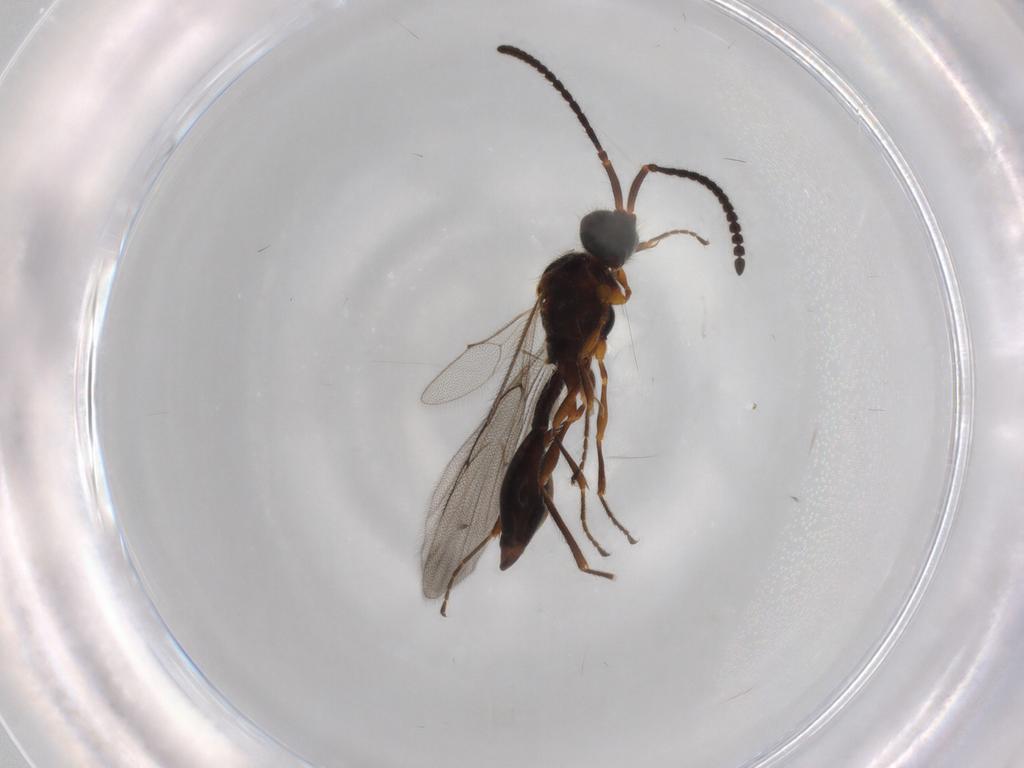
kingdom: Animalia
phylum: Arthropoda
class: Insecta
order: Hymenoptera
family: Diapriidae
